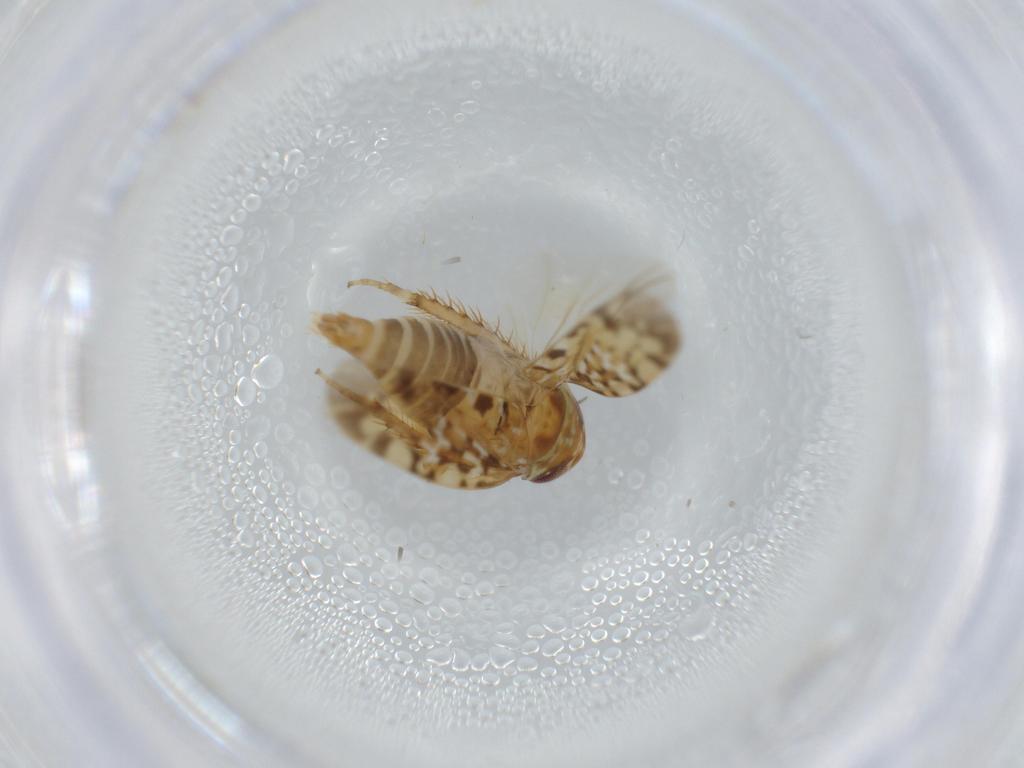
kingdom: Animalia
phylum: Arthropoda
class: Insecta
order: Hemiptera
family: Cicadellidae
